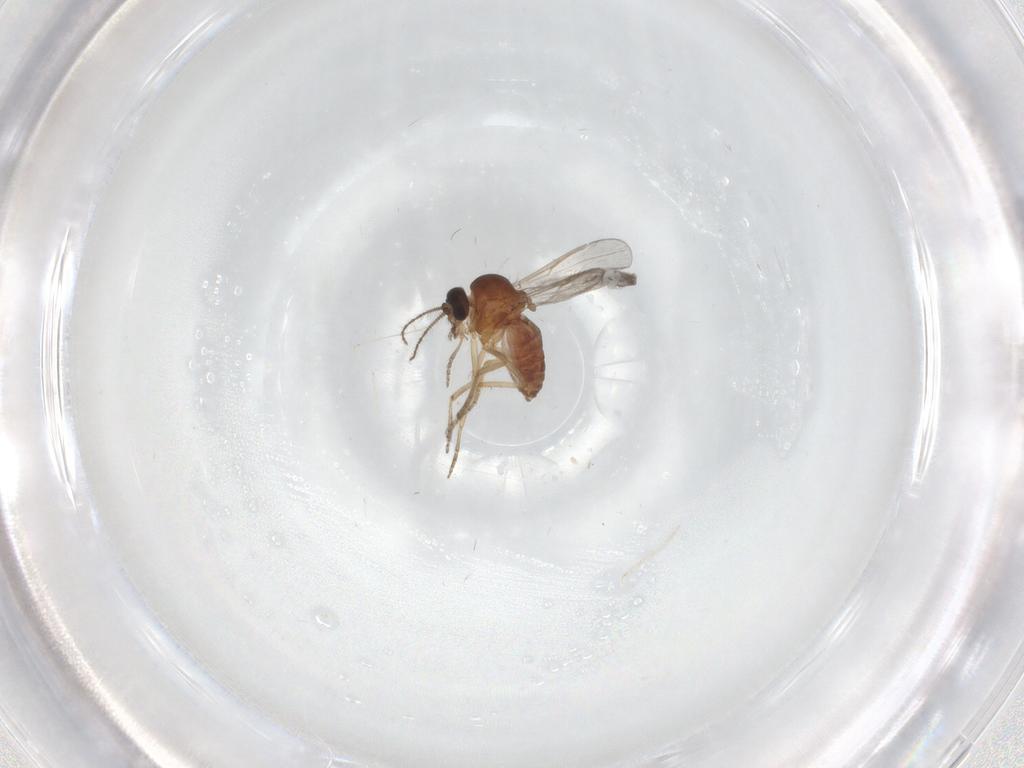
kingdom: Animalia
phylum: Arthropoda
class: Insecta
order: Diptera
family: Ceratopogonidae
